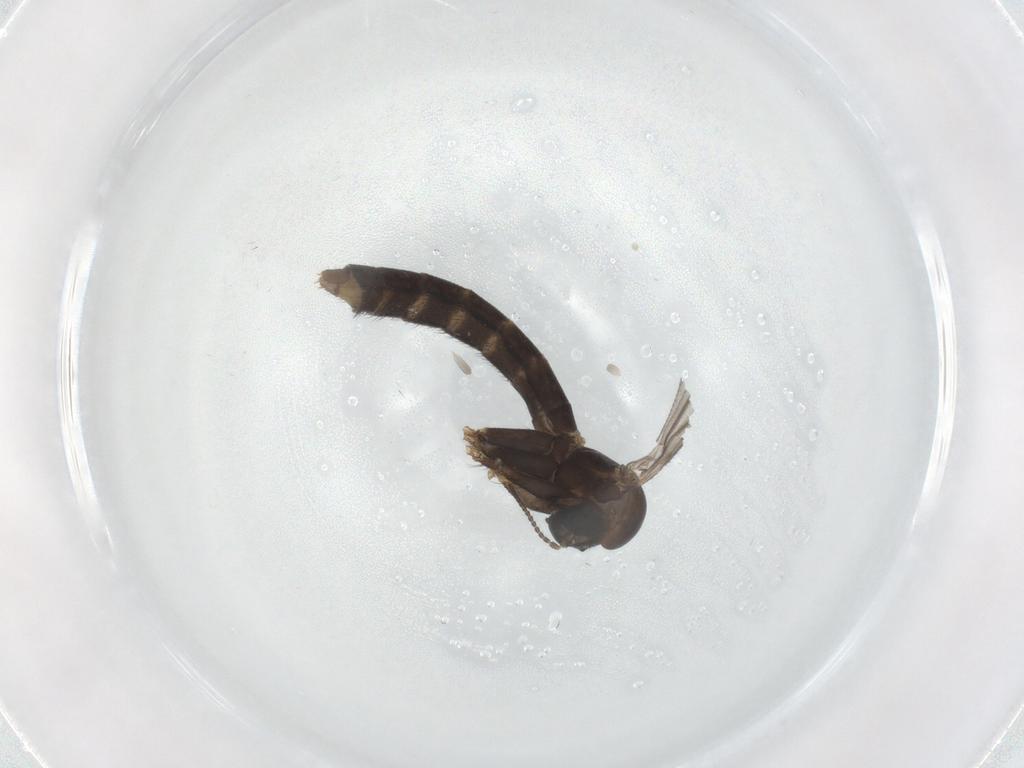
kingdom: Animalia
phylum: Arthropoda
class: Insecta
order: Diptera
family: Keroplatidae
